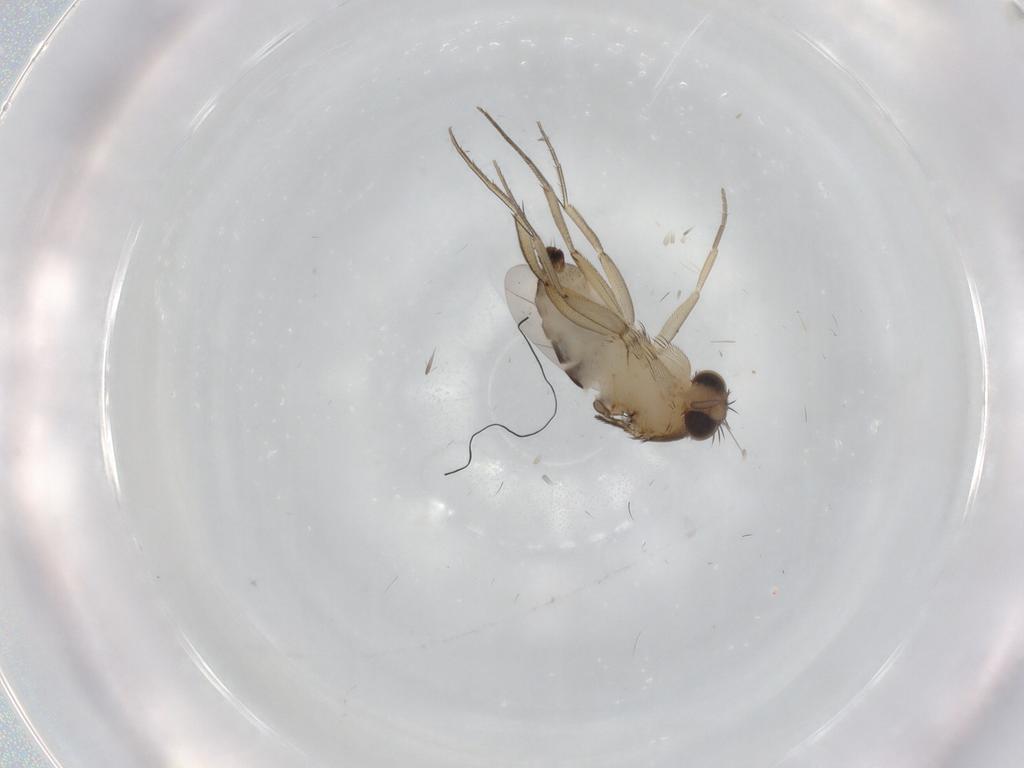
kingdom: Animalia
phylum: Arthropoda
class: Insecta
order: Diptera
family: Phoridae
